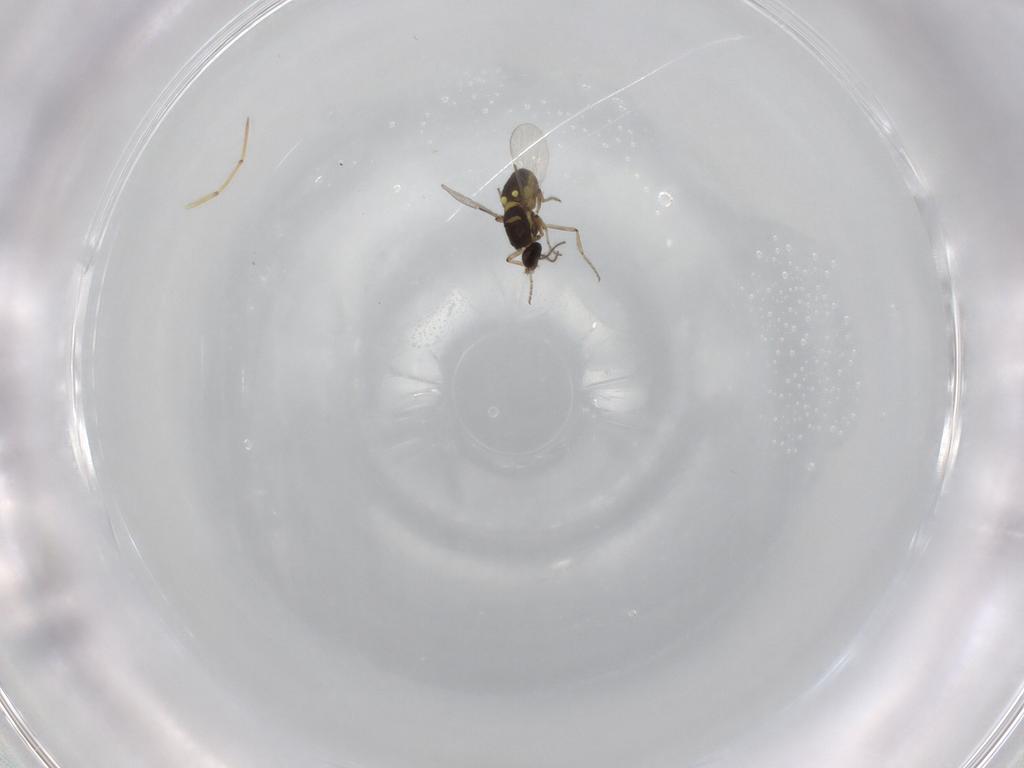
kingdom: Animalia
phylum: Arthropoda
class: Insecta
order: Diptera
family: Ceratopogonidae
